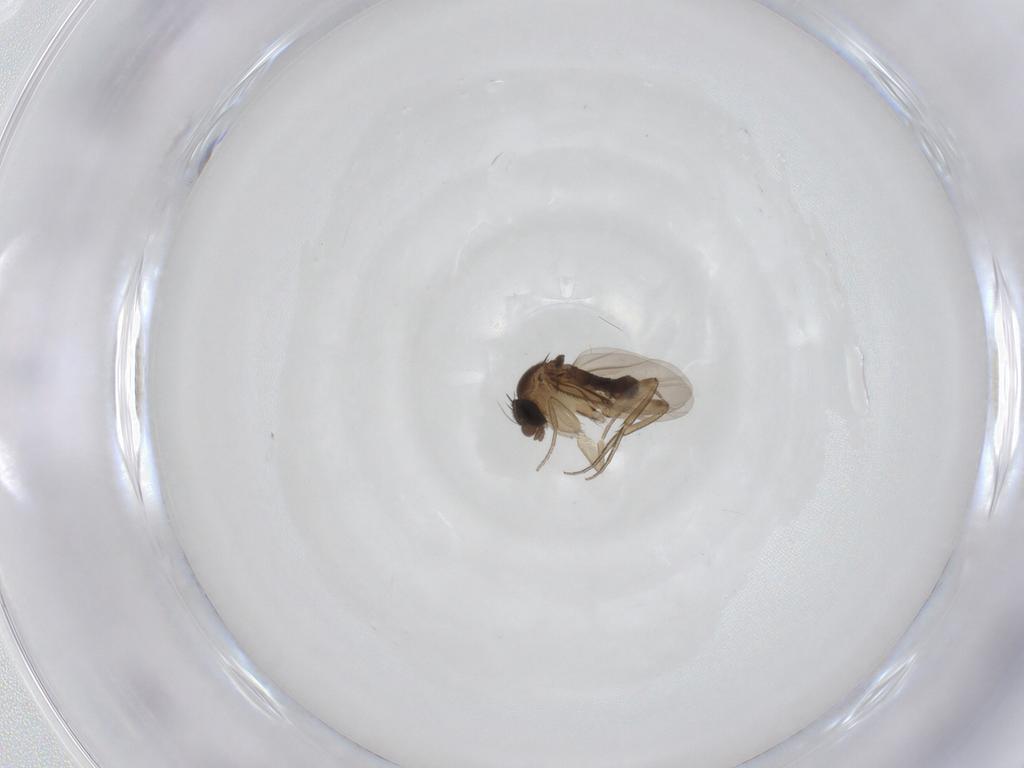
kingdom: Animalia
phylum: Arthropoda
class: Insecta
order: Diptera
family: Phoridae
